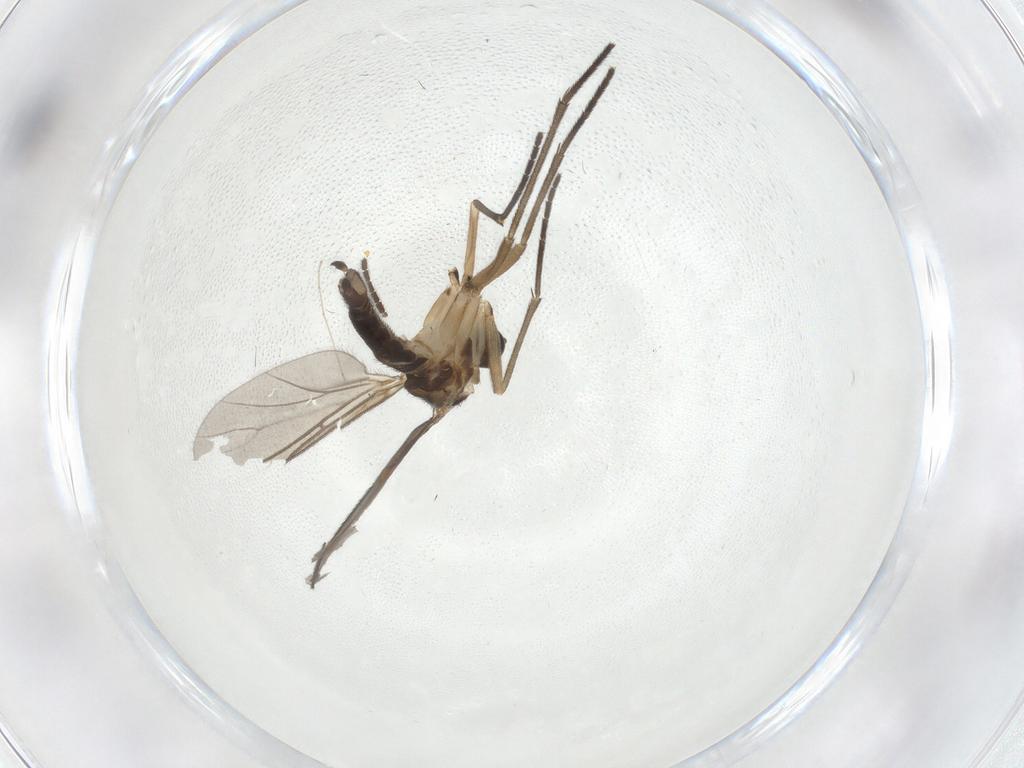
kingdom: Animalia
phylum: Arthropoda
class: Insecta
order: Diptera
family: Sciaridae
